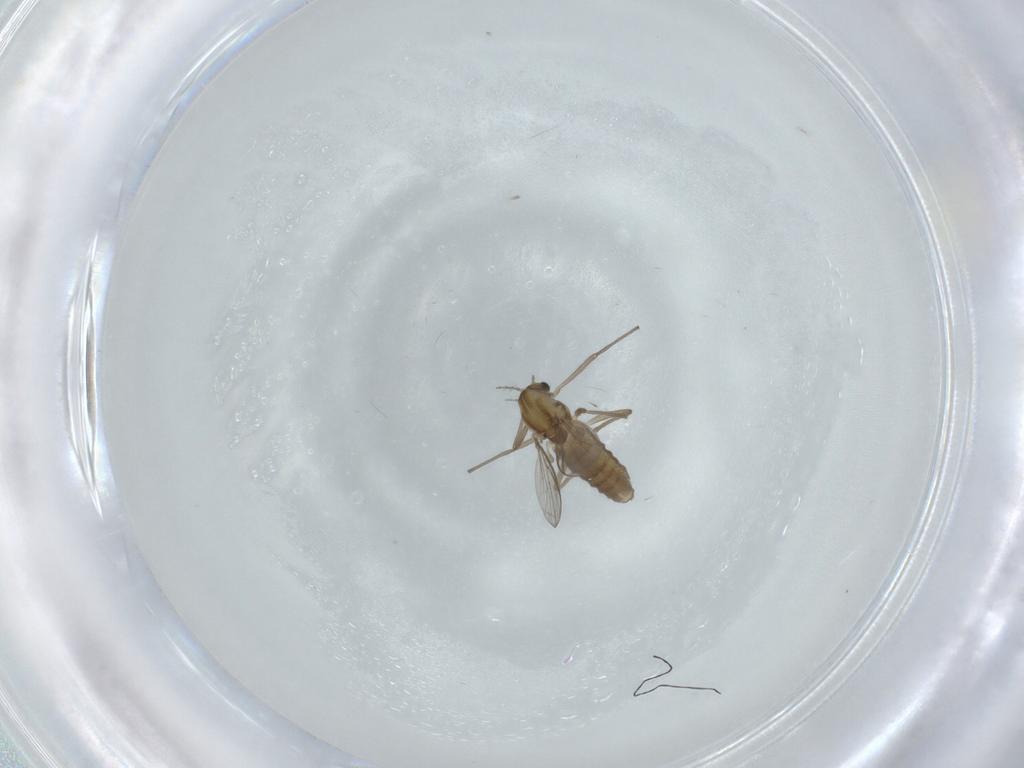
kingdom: Animalia
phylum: Arthropoda
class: Insecta
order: Diptera
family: Chironomidae
